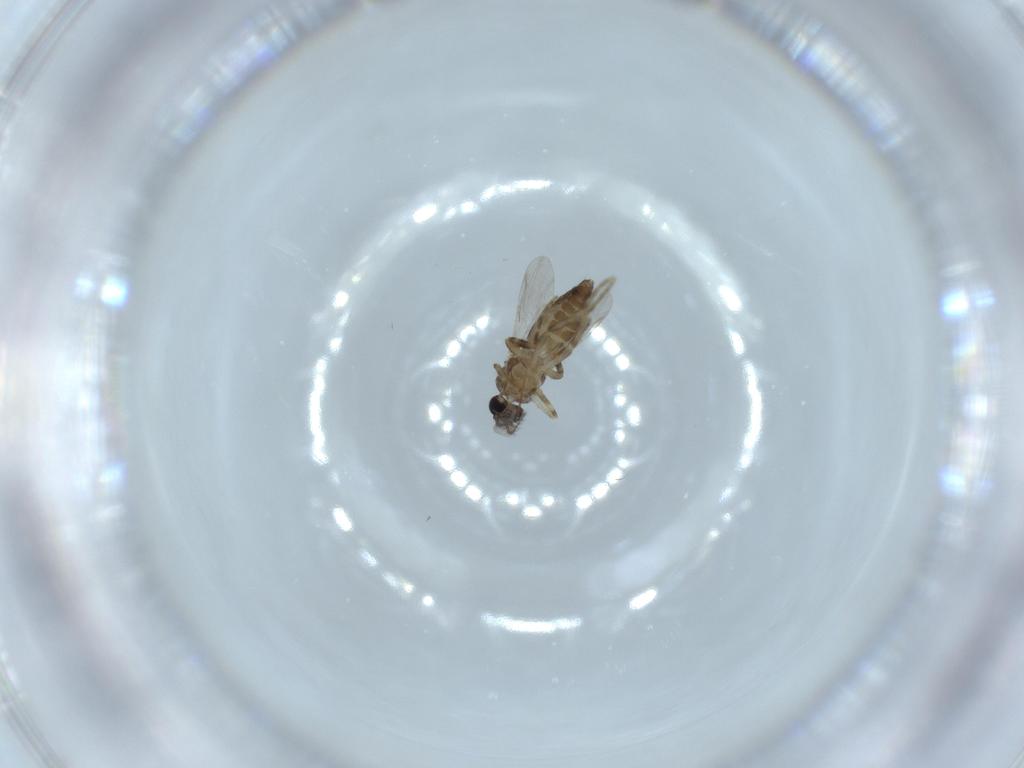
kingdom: Animalia
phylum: Arthropoda
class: Insecta
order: Diptera
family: Ceratopogonidae
